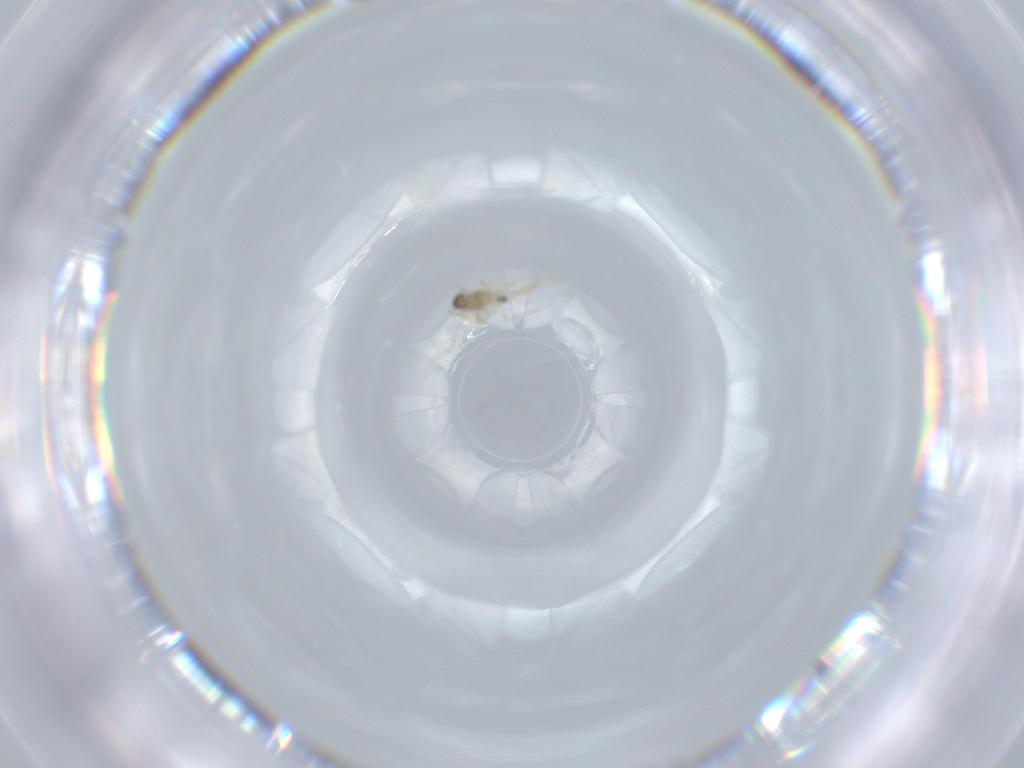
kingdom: Animalia
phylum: Arthropoda
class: Insecta
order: Diptera
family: Cecidomyiidae
